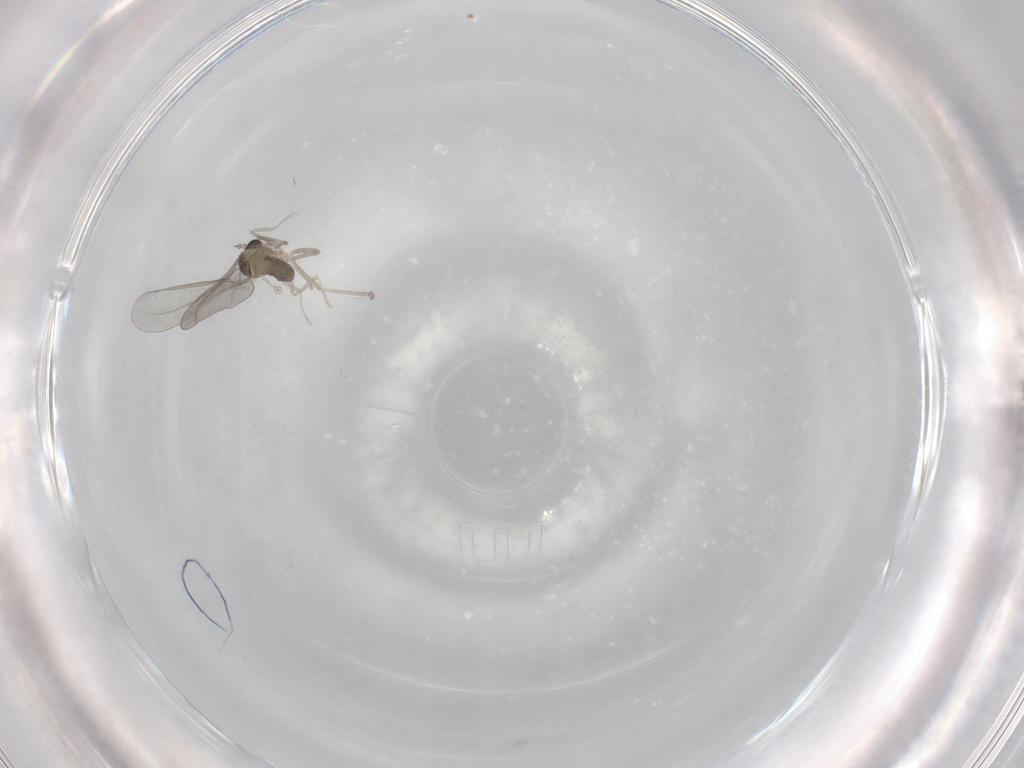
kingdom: Animalia
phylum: Arthropoda
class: Insecta
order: Diptera
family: Cecidomyiidae
